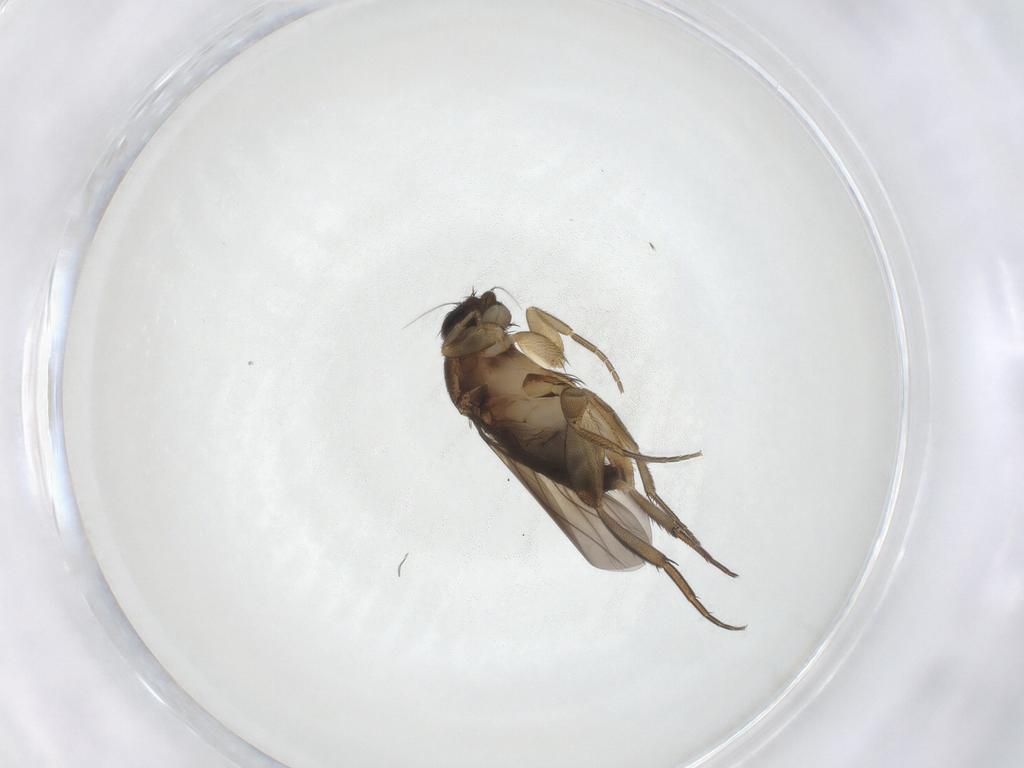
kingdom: Animalia
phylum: Arthropoda
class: Insecta
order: Diptera
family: Phoridae
